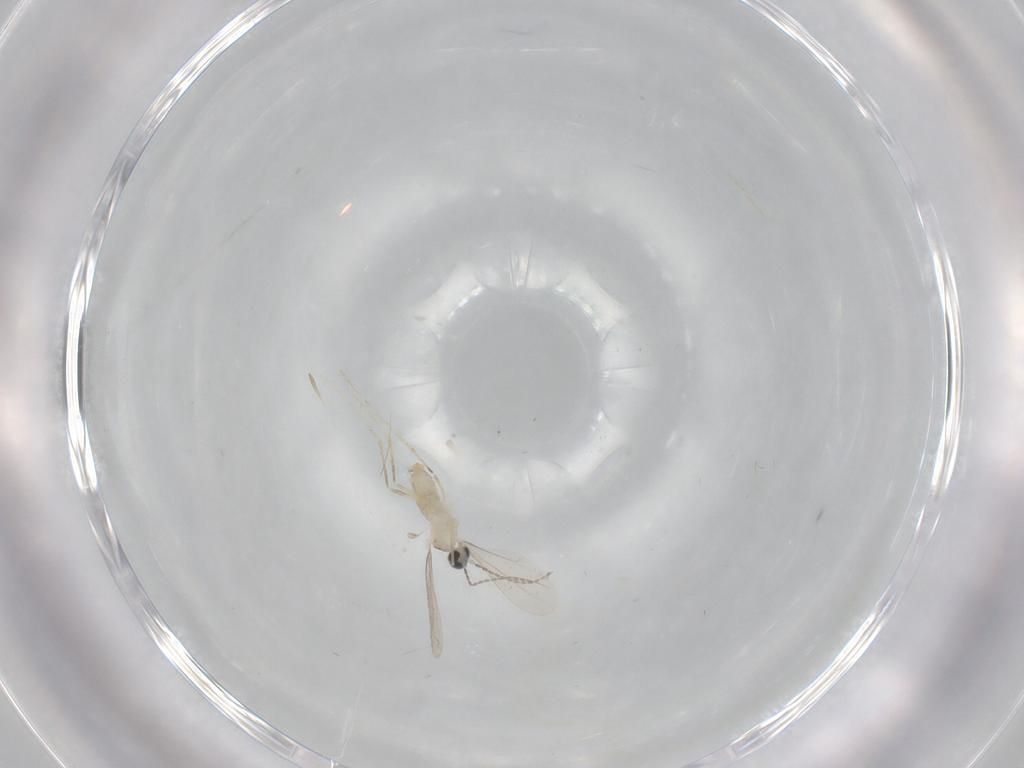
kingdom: Animalia
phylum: Arthropoda
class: Insecta
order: Diptera
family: Cecidomyiidae
